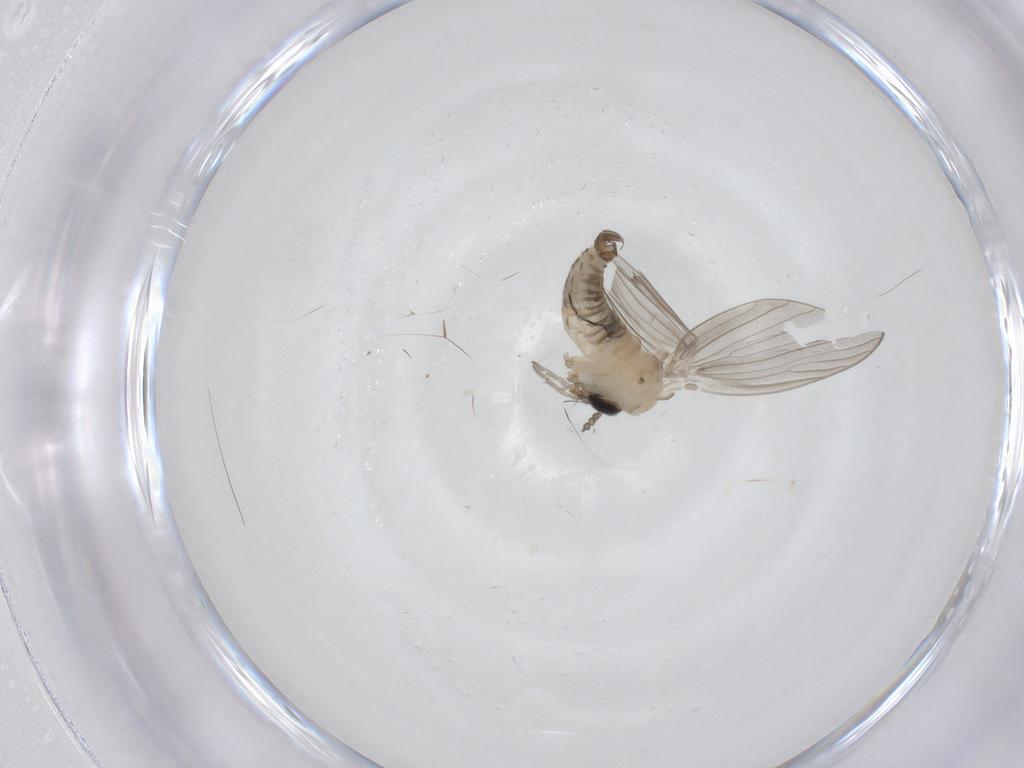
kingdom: Animalia
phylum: Arthropoda
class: Insecta
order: Diptera
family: Psychodidae
